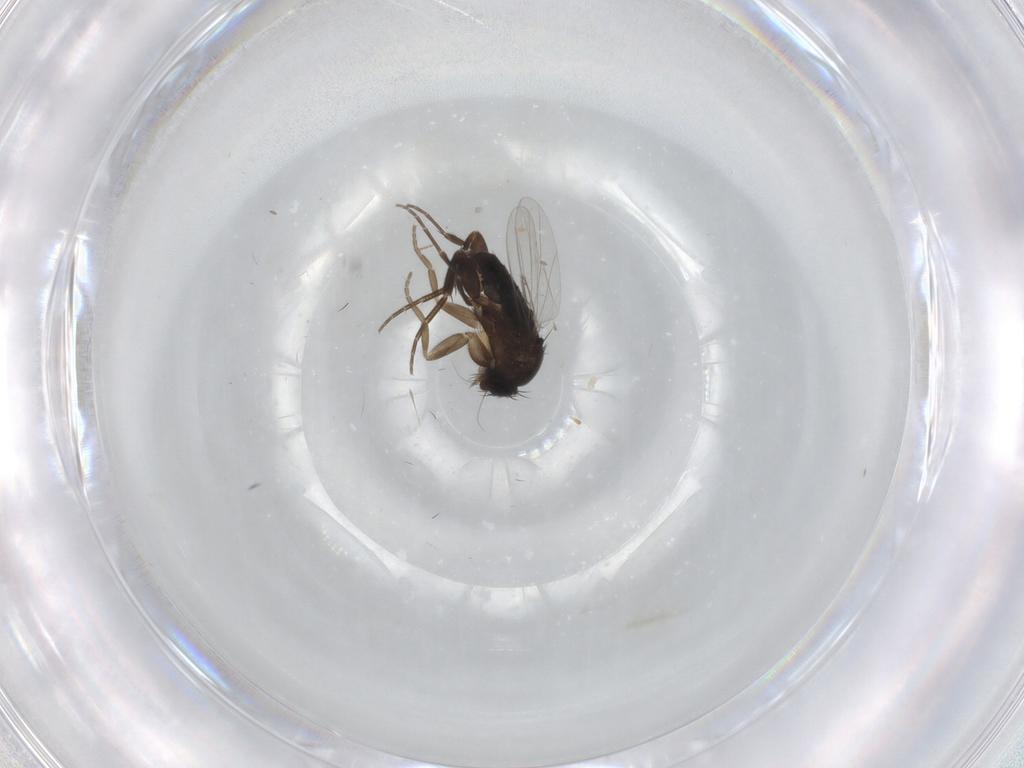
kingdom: Animalia
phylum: Arthropoda
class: Insecta
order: Diptera
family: Phoridae
